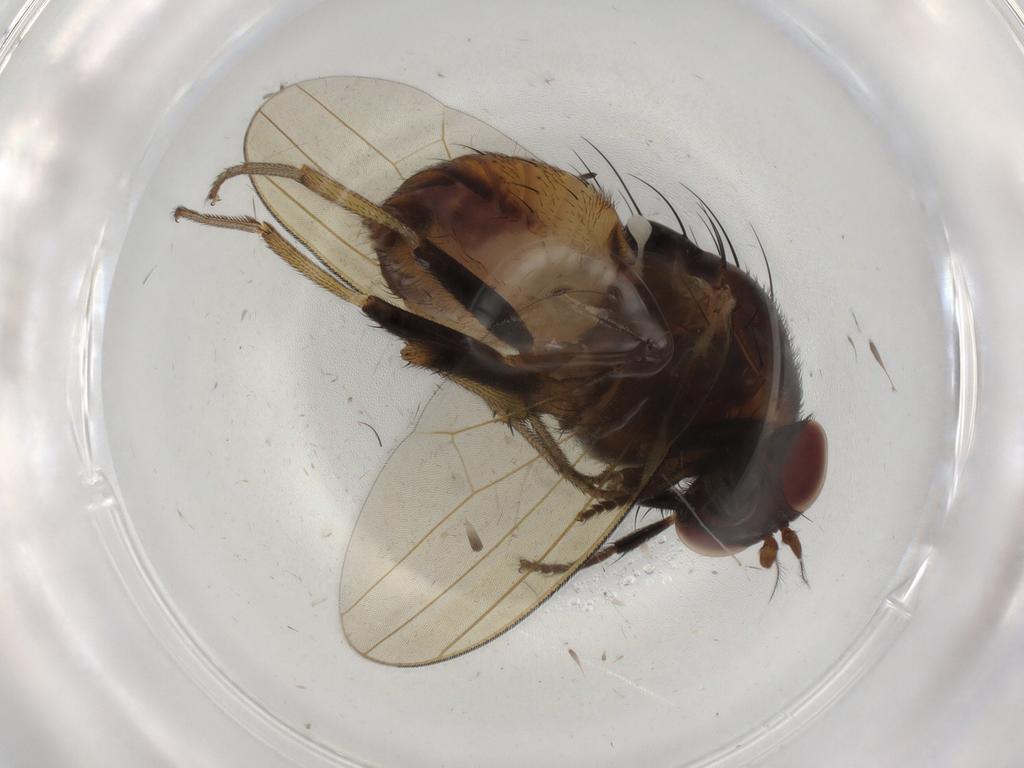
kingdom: Animalia
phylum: Arthropoda
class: Insecta
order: Diptera
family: Lauxaniidae
